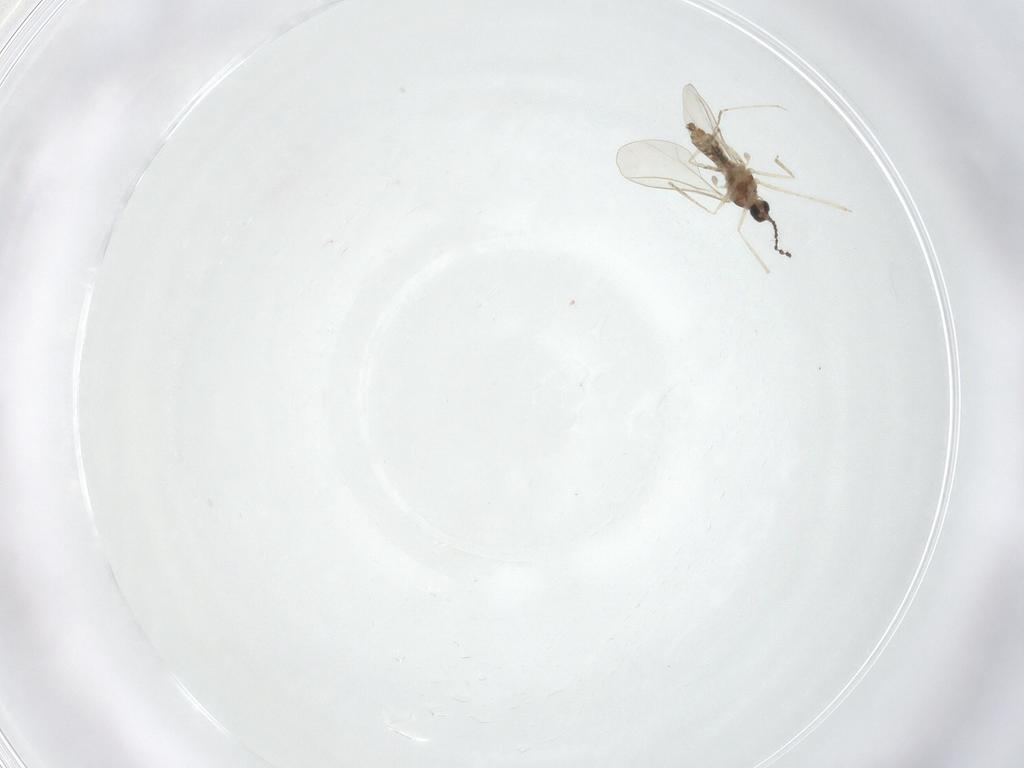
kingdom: Animalia
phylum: Arthropoda
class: Insecta
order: Diptera
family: Cecidomyiidae
